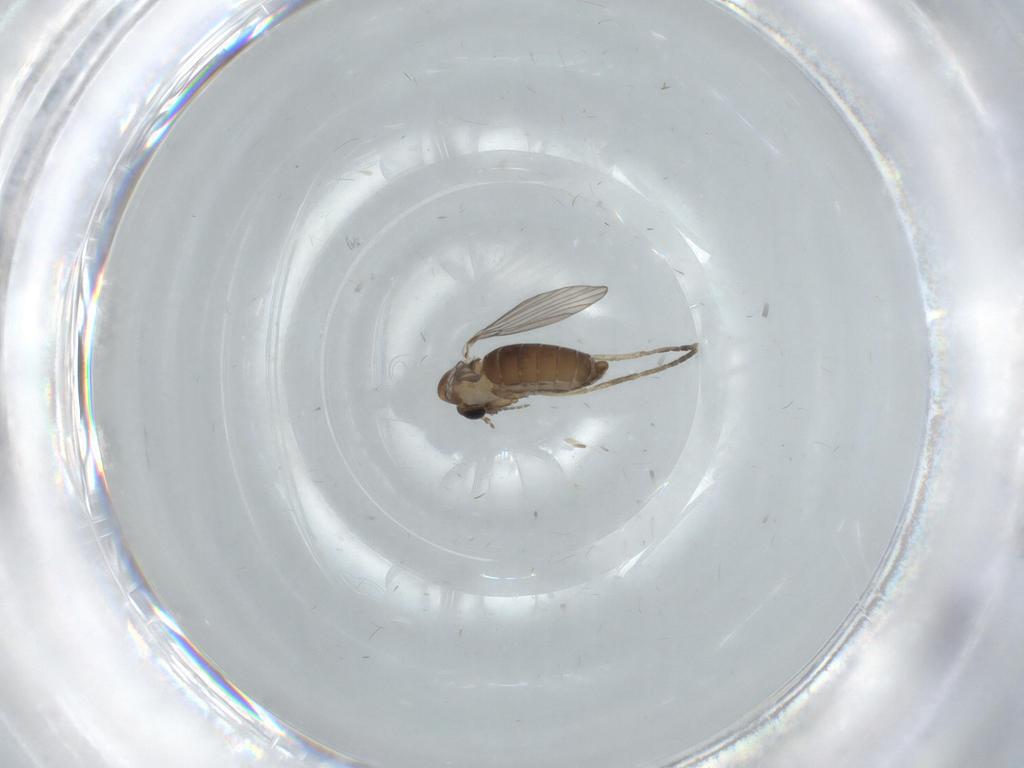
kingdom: Animalia
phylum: Arthropoda
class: Insecta
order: Diptera
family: Psychodidae
